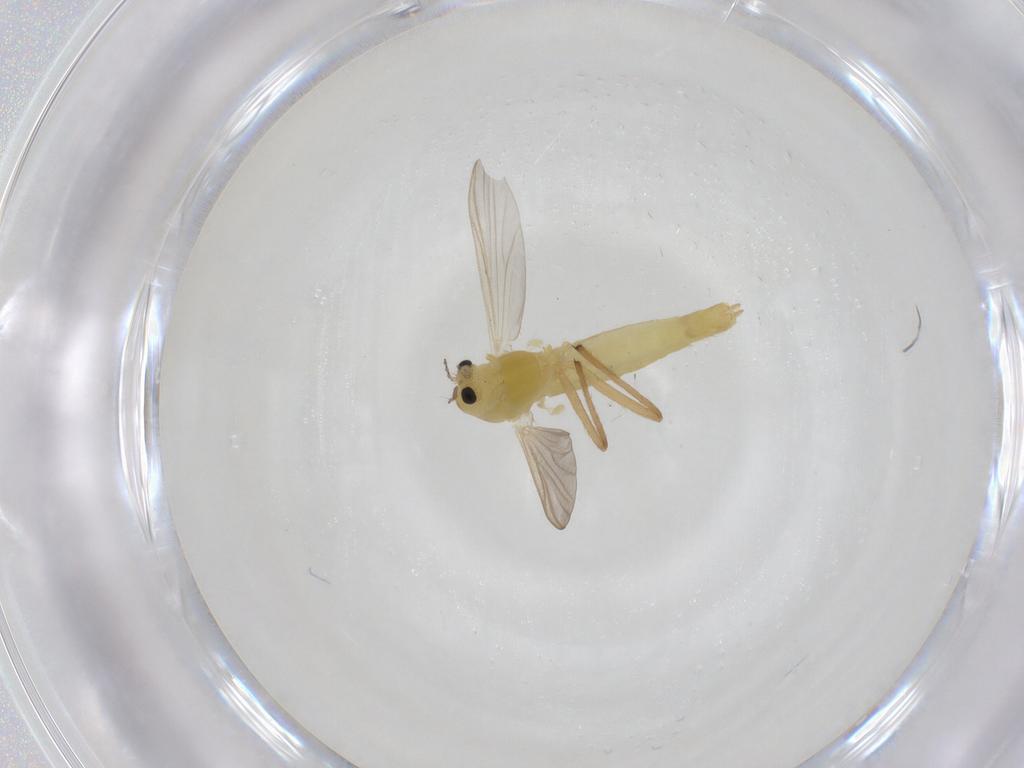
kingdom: Animalia
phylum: Arthropoda
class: Insecta
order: Diptera
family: Chironomidae
